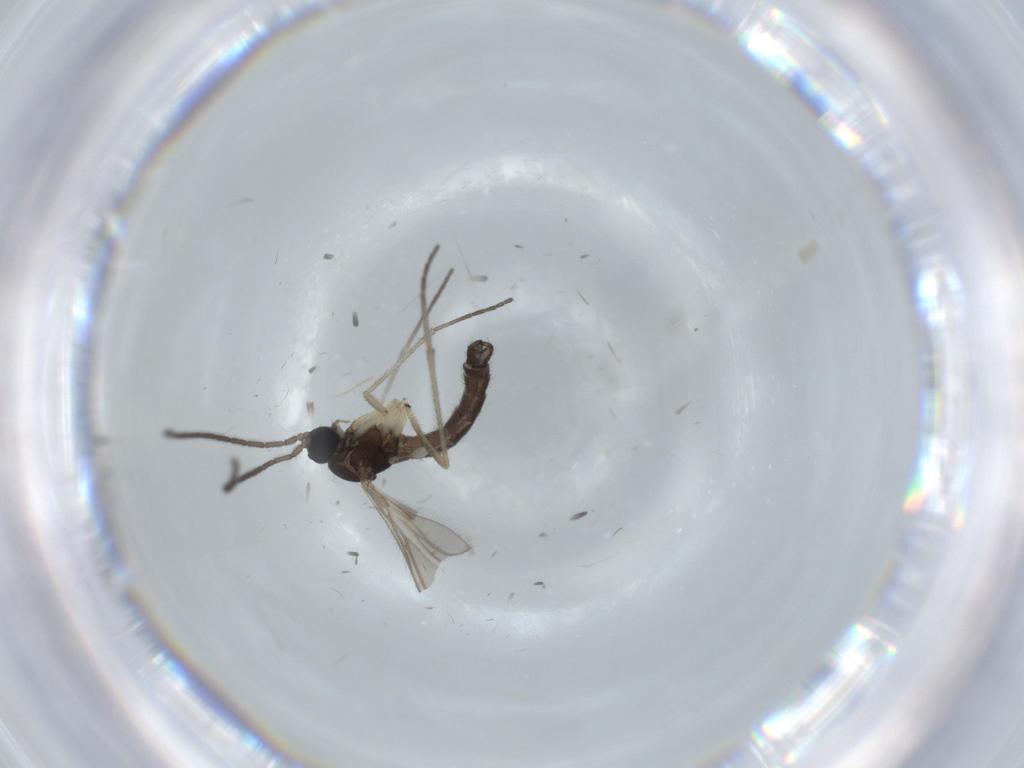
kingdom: Animalia
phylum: Arthropoda
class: Insecta
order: Diptera
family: Sciaridae
